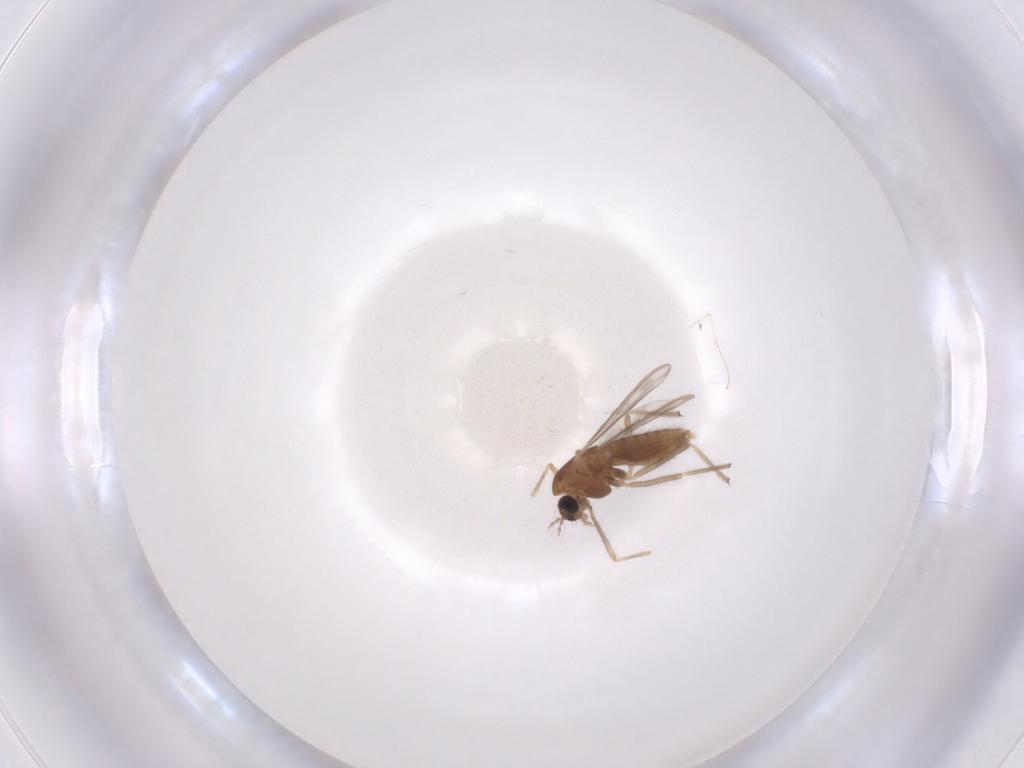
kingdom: Animalia
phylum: Arthropoda
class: Insecta
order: Diptera
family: Chironomidae
